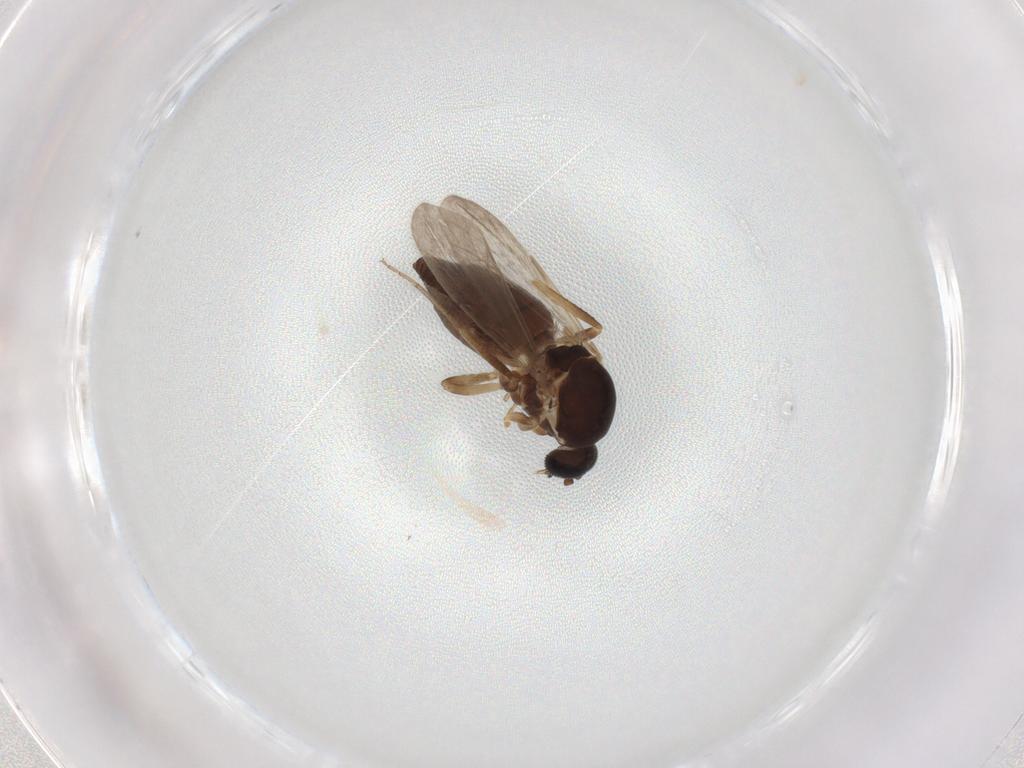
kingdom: Animalia
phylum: Arthropoda
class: Insecta
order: Diptera
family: Ceratopogonidae
